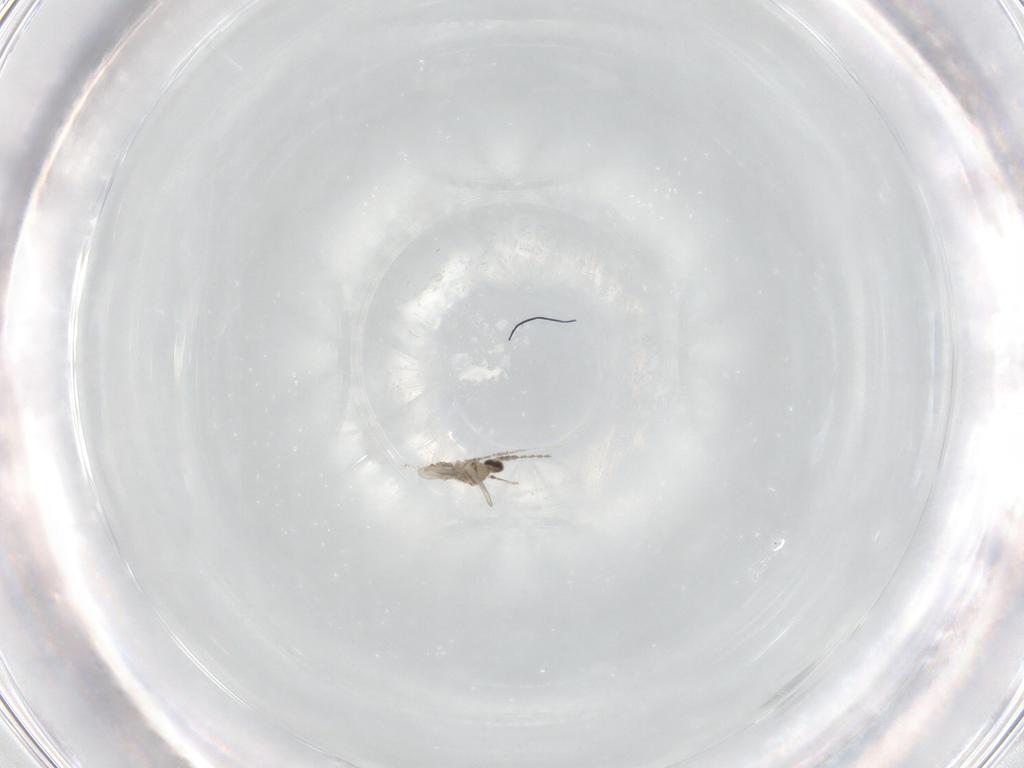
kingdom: Animalia
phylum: Arthropoda
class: Insecta
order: Diptera
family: Cecidomyiidae
